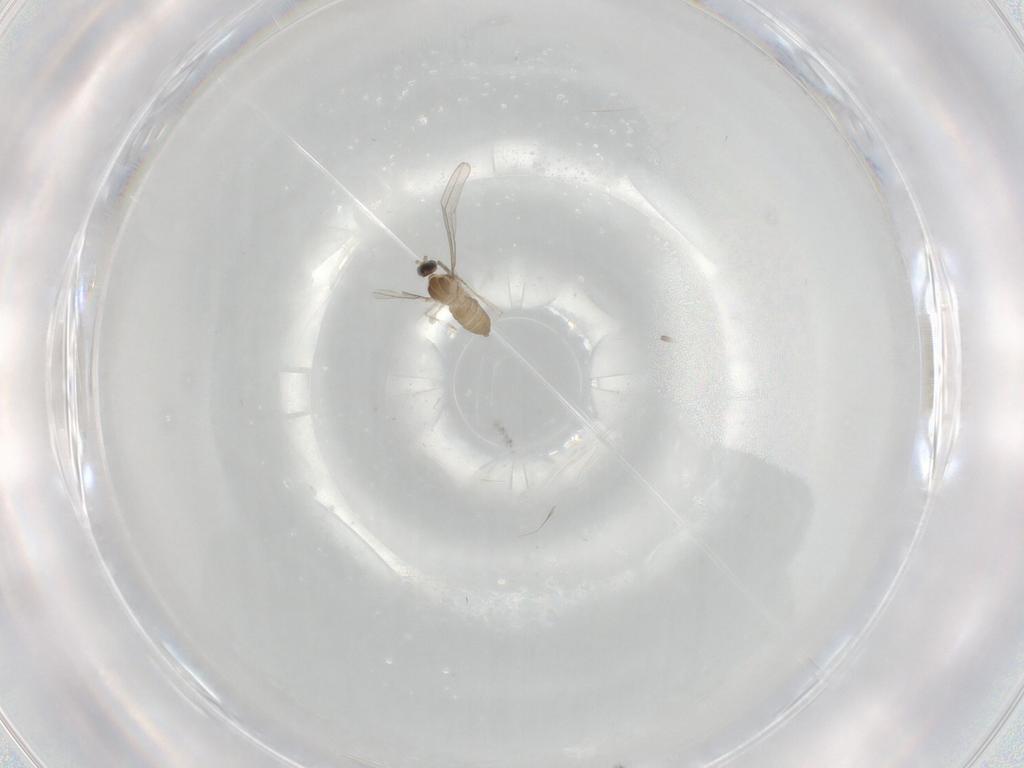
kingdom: Animalia
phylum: Arthropoda
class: Insecta
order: Diptera
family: Cecidomyiidae
